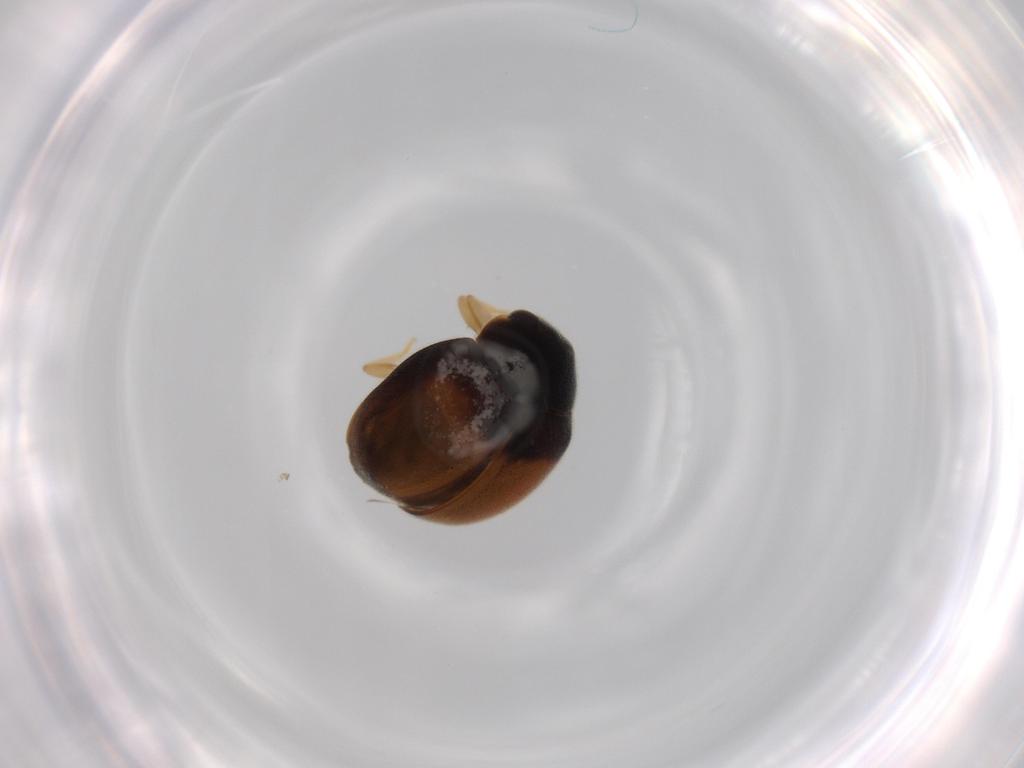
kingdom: Animalia
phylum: Arthropoda
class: Insecta
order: Coleoptera
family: Coccinellidae
